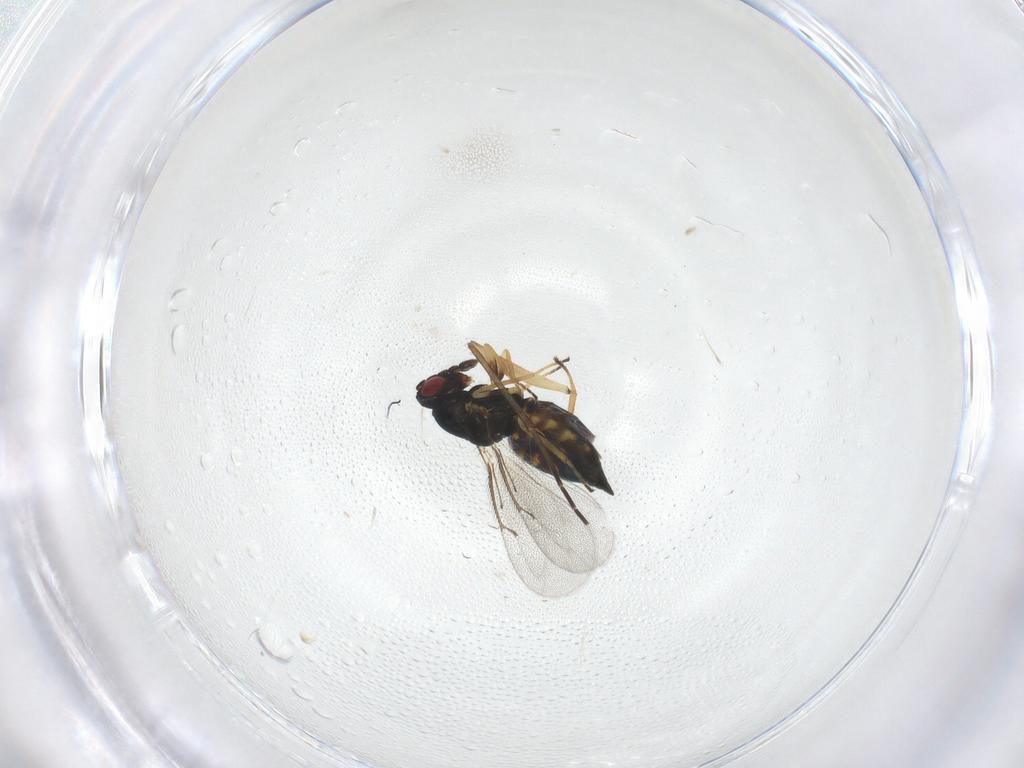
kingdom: Animalia
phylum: Arthropoda
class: Insecta
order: Hymenoptera
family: Eulophidae
